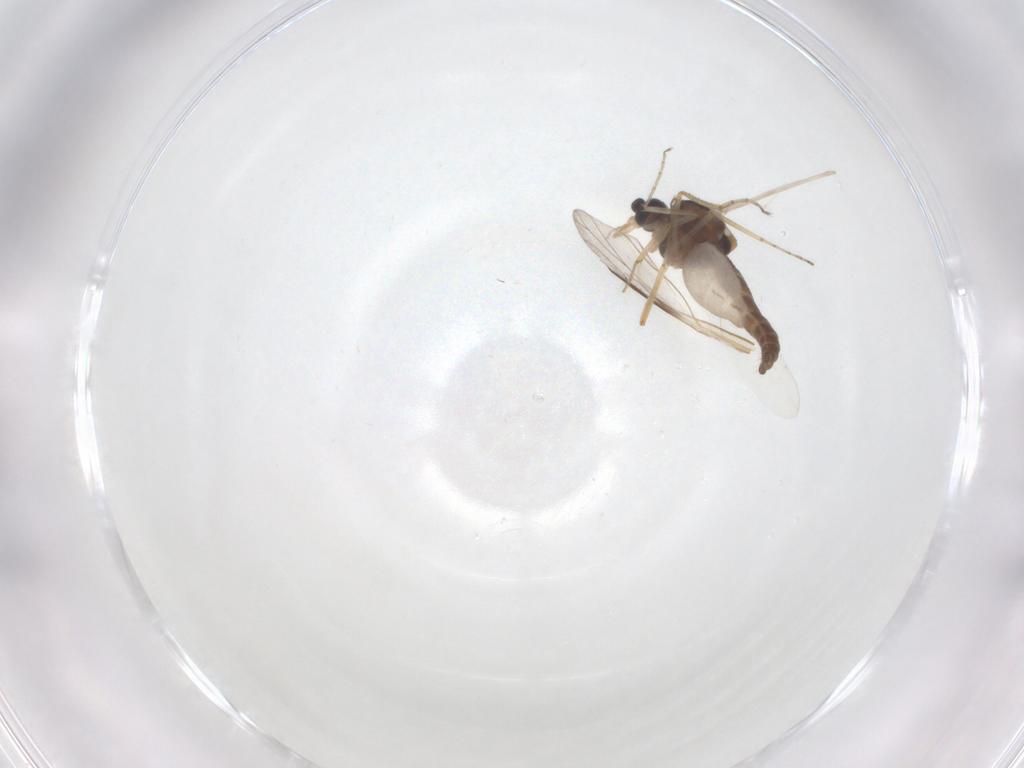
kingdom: Animalia
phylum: Arthropoda
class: Insecta
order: Diptera
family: Ceratopogonidae
